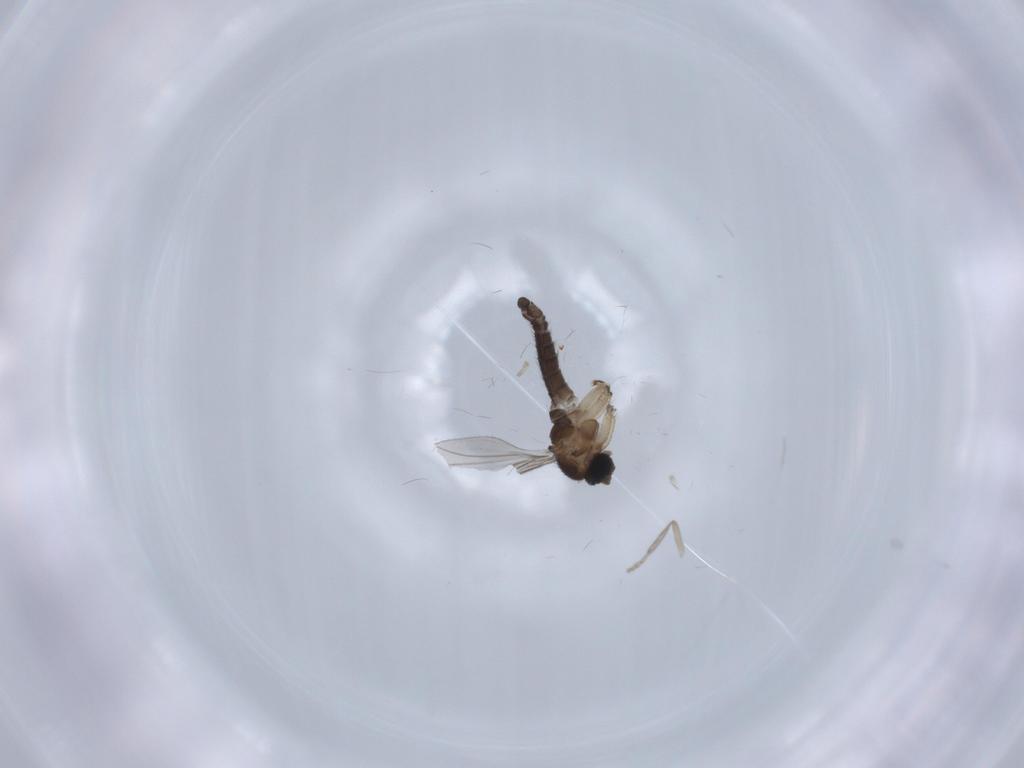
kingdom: Animalia
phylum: Arthropoda
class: Insecta
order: Diptera
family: Sciaridae
